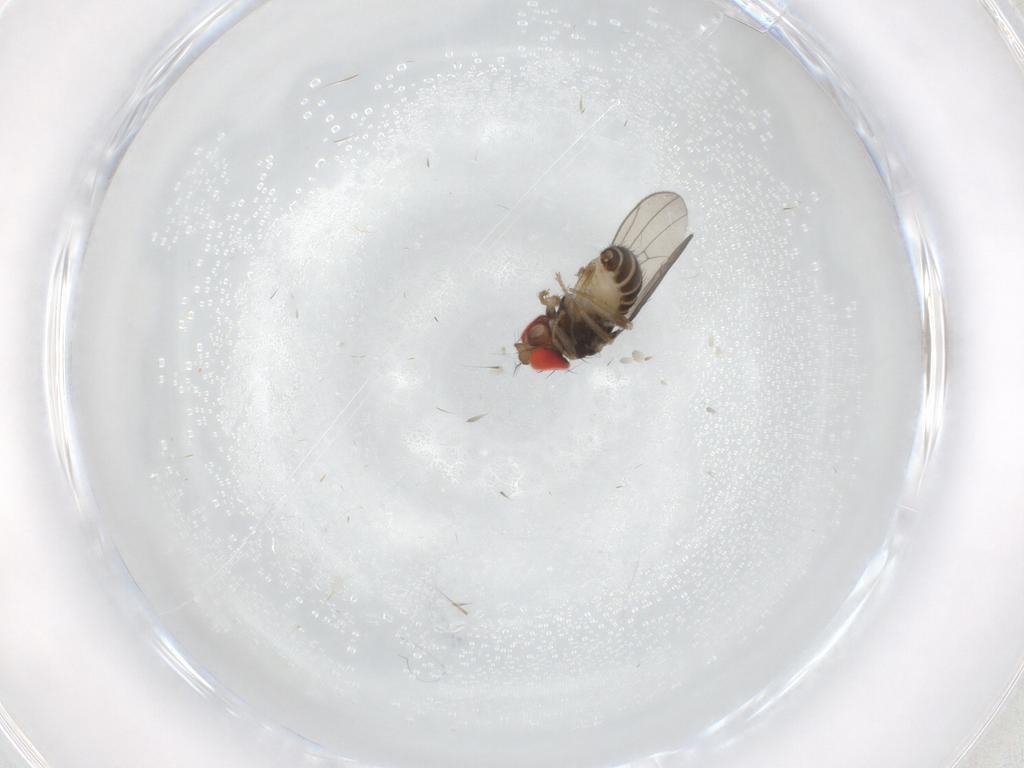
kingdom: Animalia
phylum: Arthropoda
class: Insecta
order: Diptera
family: Drosophilidae
